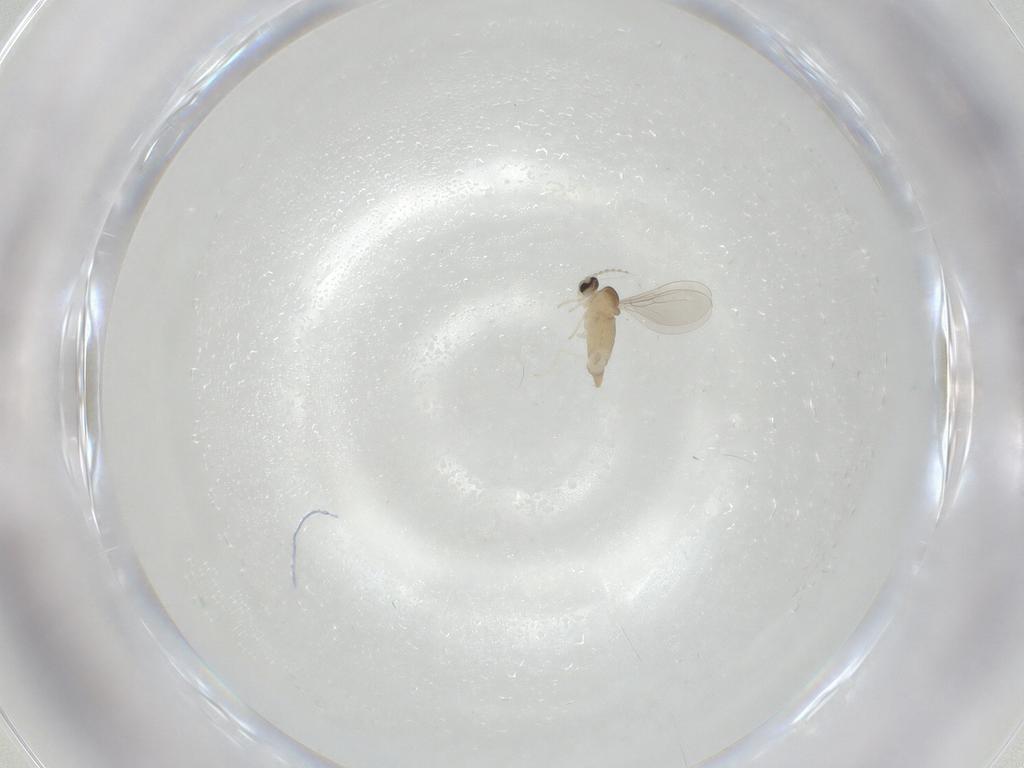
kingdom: Animalia
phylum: Arthropoda
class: Insecta
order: Diptera
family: Cecidomyiidae
